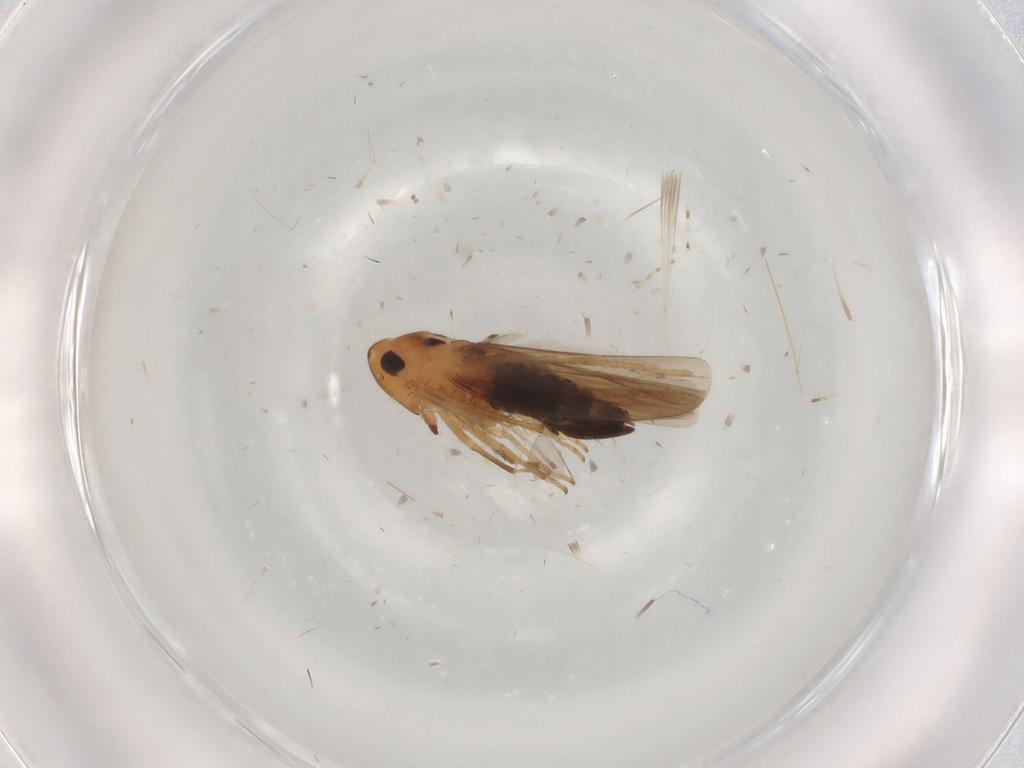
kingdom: Animalia
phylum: Arthropoda
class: Insecta
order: Hemiptera
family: Cicadellidae
